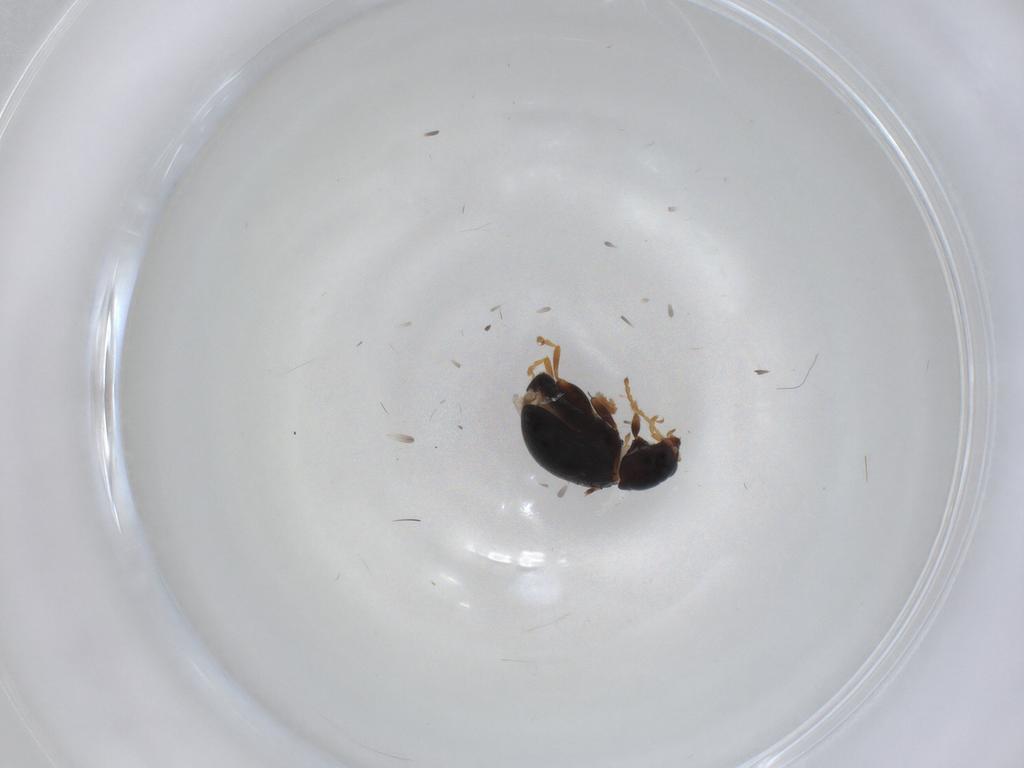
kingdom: Animalia
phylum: Arthropoda
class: Insecta
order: Coleoptera
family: Chrysomelidae
